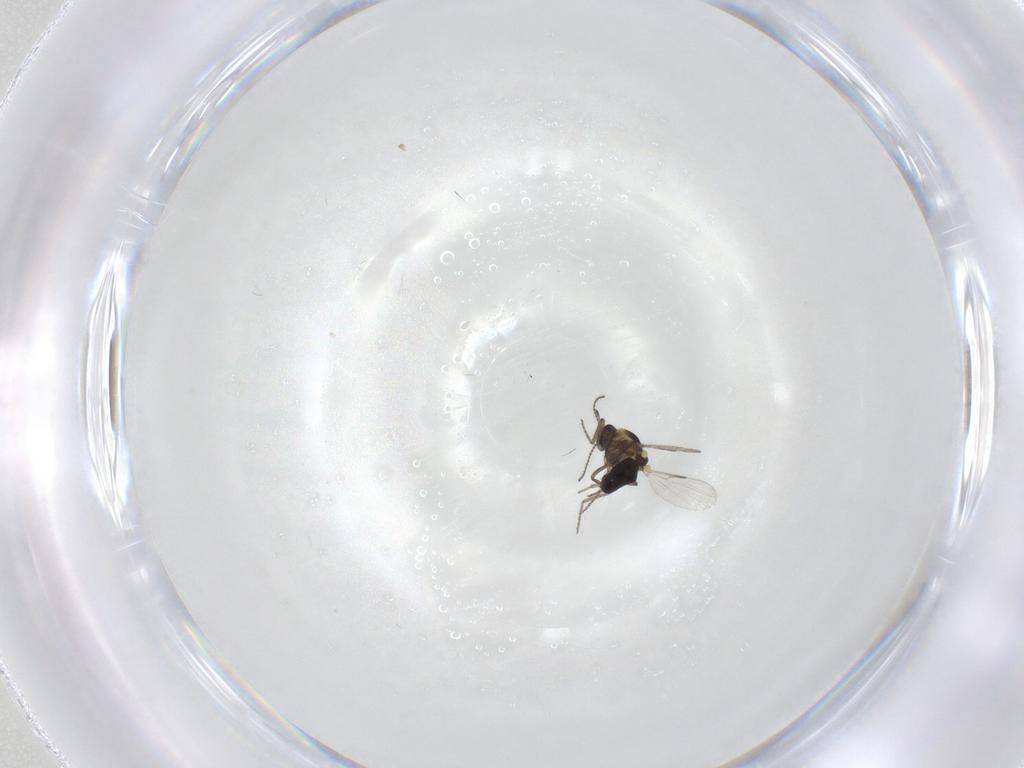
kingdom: Animalia
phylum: Arthropoda
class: Insecta
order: Diptera
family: Ceratopogonidae
